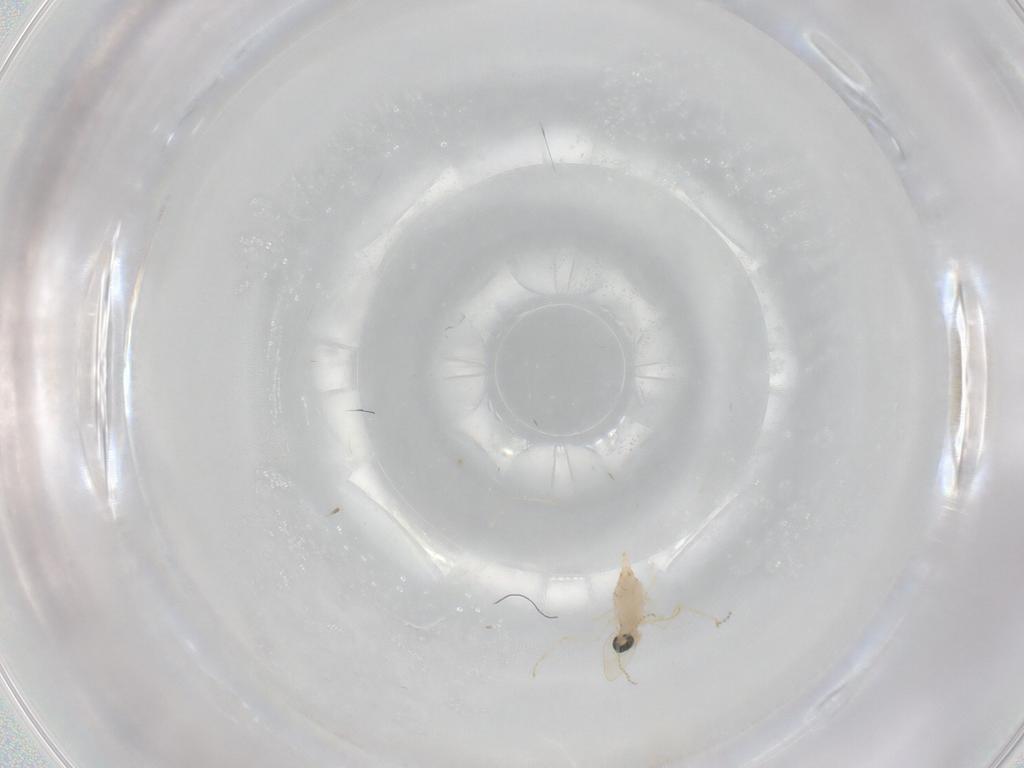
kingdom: Animalia
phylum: Arthropoda
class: Insecta
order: Diptera
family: Cecidomyiidae
